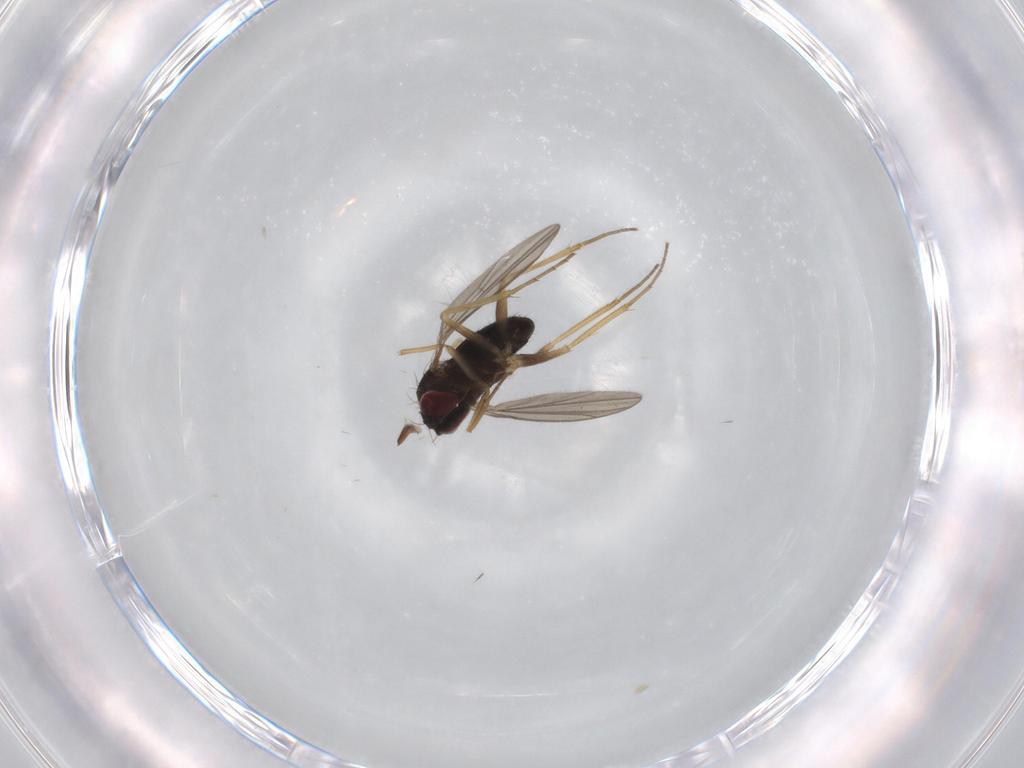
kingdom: Animalia
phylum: Arthropoda
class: Insecta
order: Diptera
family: Dolichopodidae
